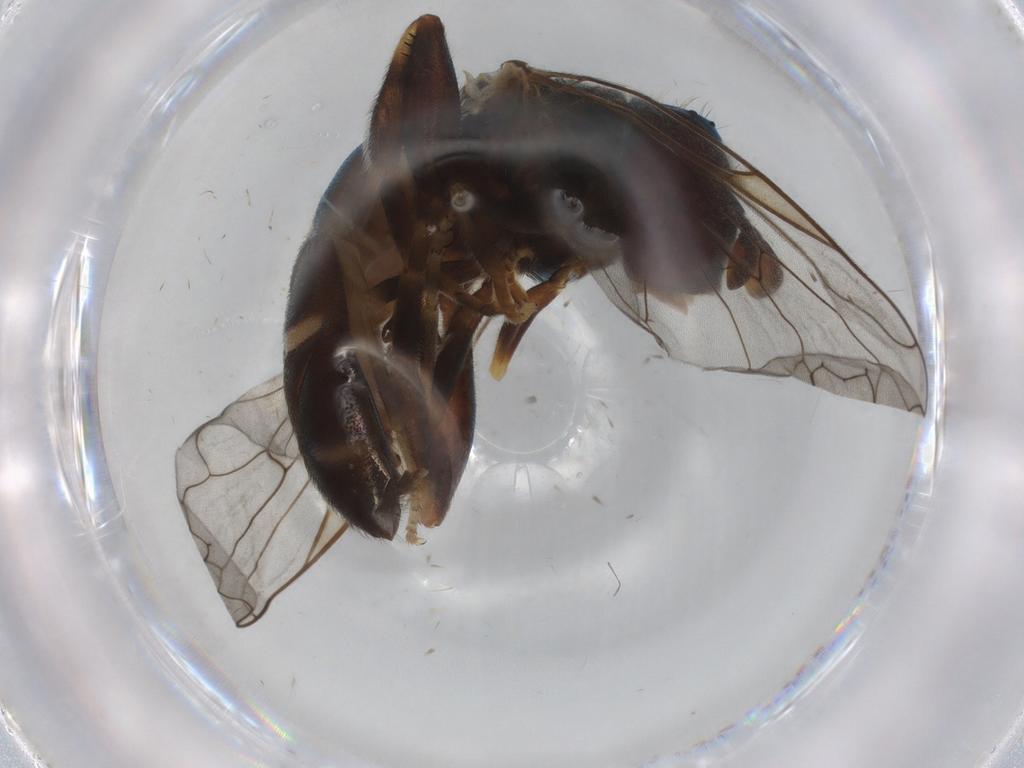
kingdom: Animalia
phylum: Arthropoda
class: Insecta
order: Diptera
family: Syrphidae
